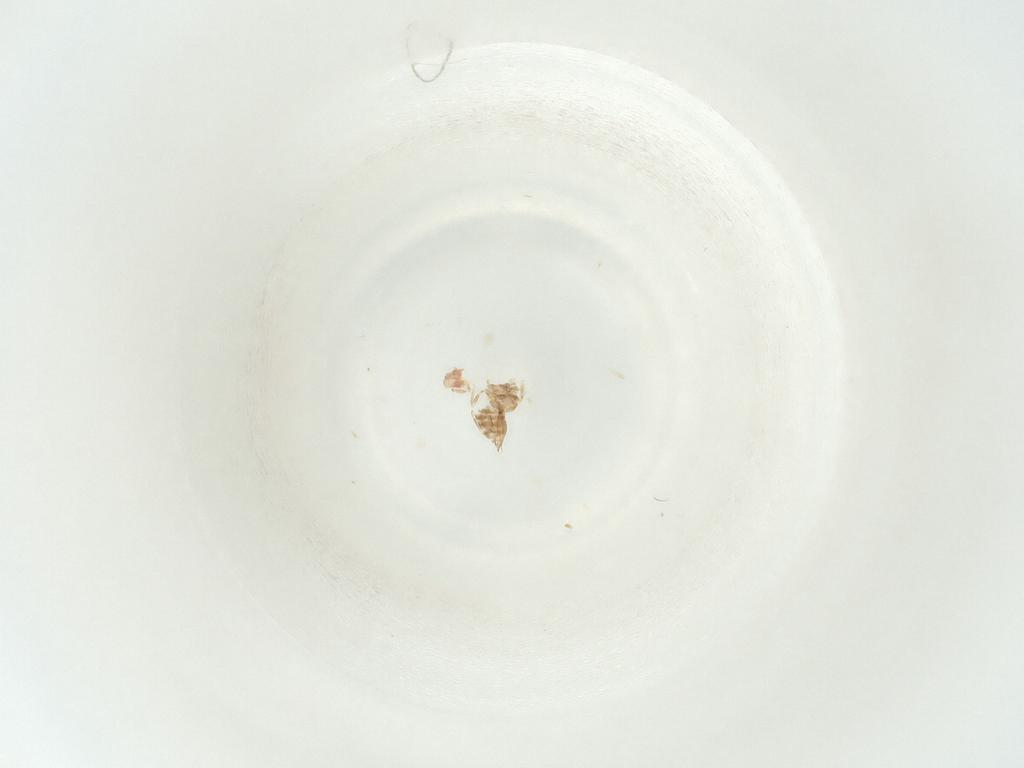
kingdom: Animalia
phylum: Arthropoda
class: Insecta
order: Diptera
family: Chironomidae
